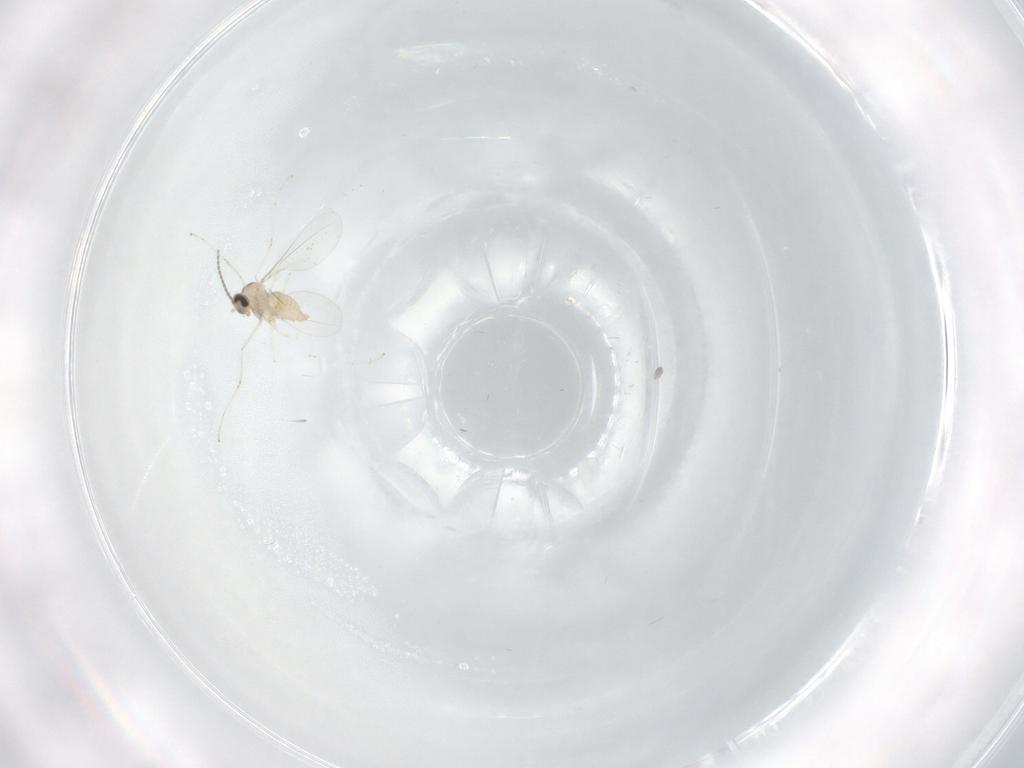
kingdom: Animalia
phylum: Arthropoda
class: Insecta
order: Diptera
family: Cecidomyiidae
